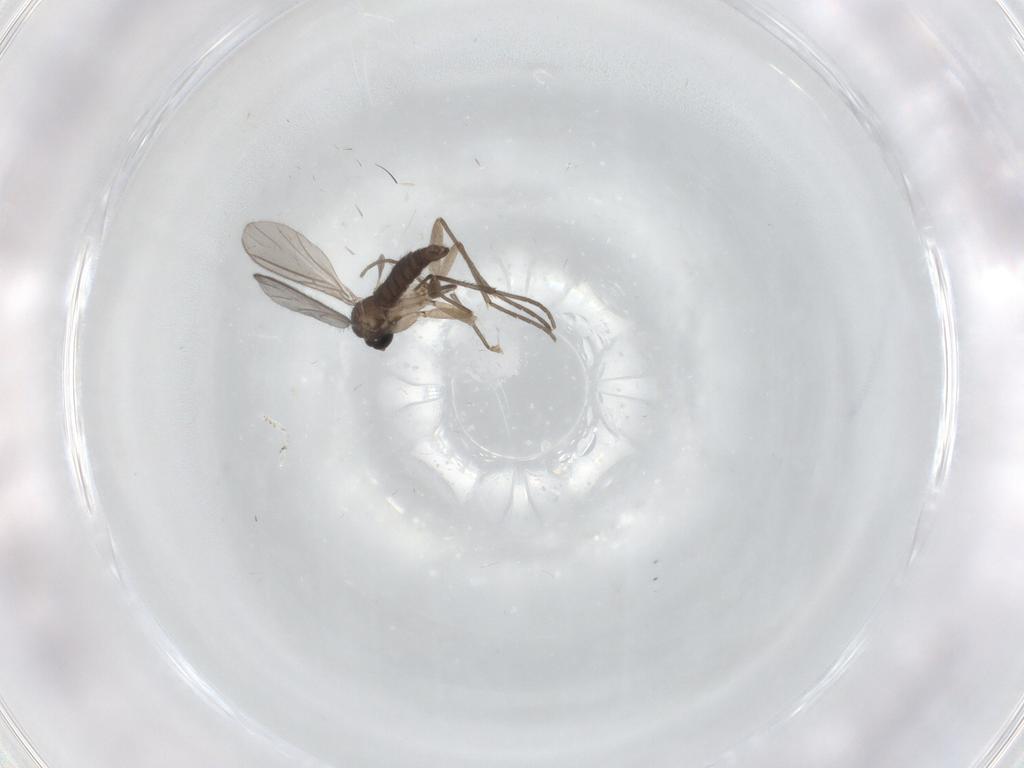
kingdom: Animalia
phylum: Arthropoda
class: Insecta
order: Diptera
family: Sciaridae
